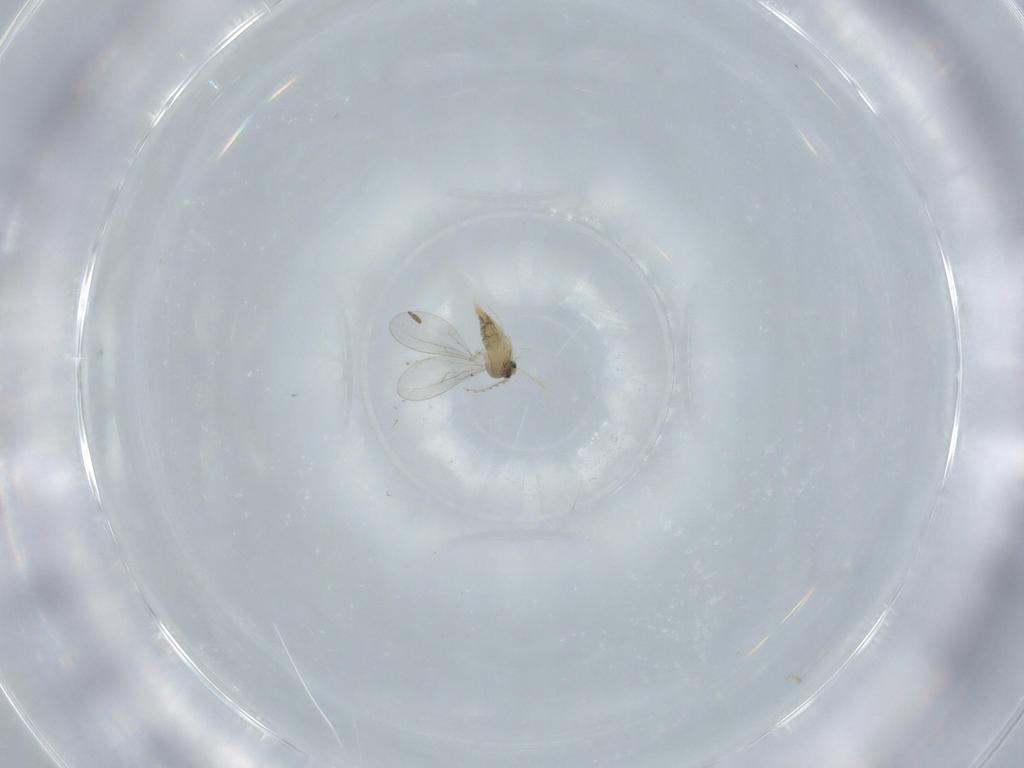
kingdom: Animalia
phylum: Arthropoda
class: Insecta
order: Diptera
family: Cecidomyiidae
